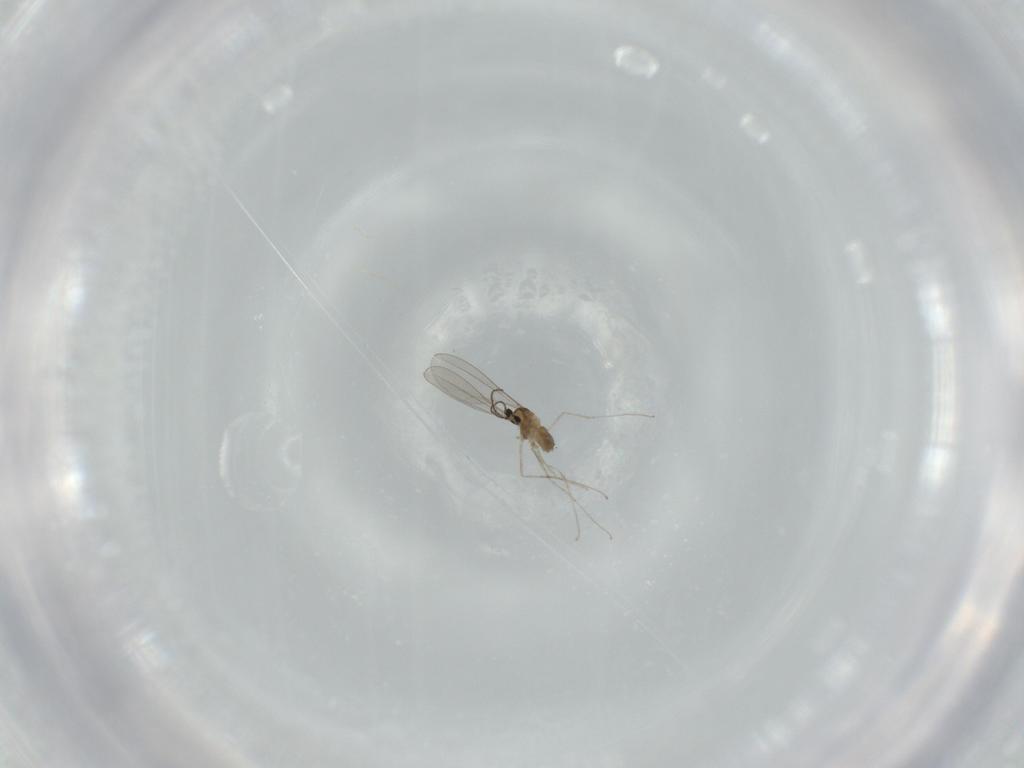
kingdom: Animalia
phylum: Arthropoda
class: Insecta
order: Diptera
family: Cecidomyiidae
